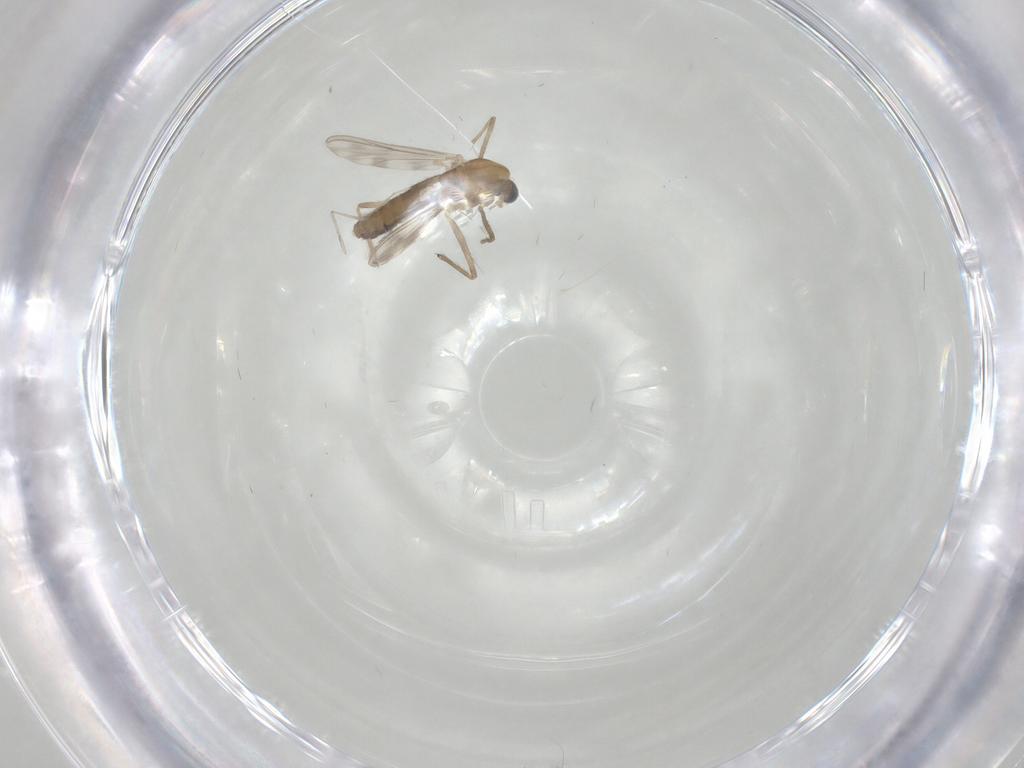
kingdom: Animalia
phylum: Arthropoda
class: Insecta
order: Diptera
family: Chironomidae
